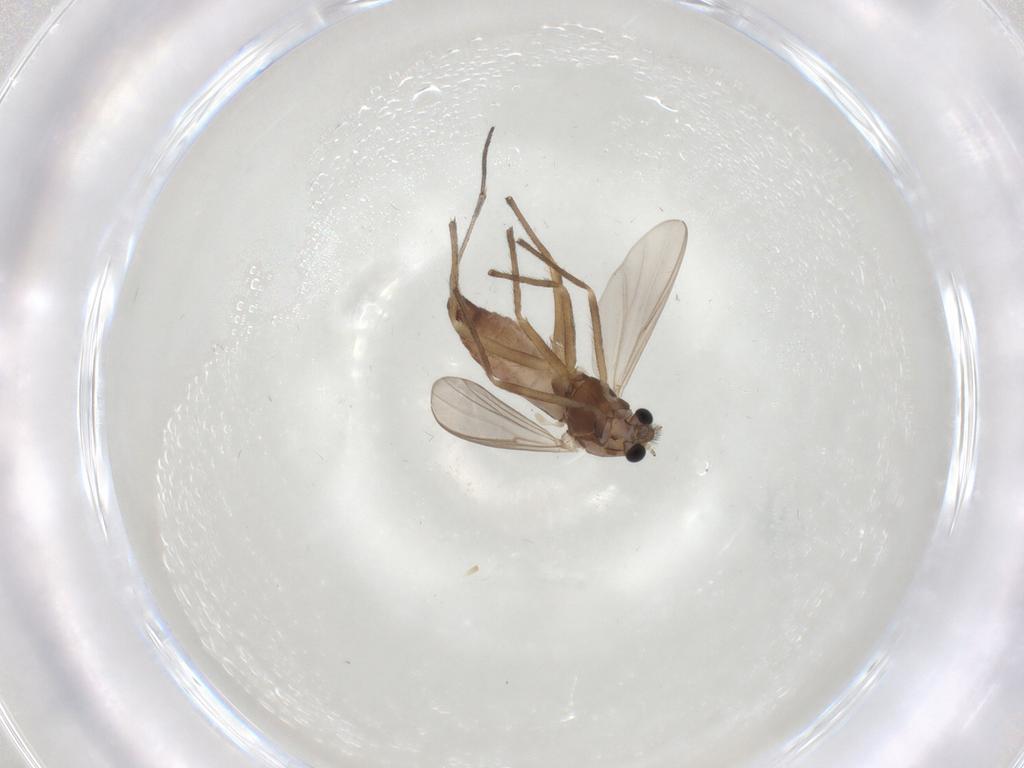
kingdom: Animalia
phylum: Arthropoda
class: Insecta
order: Diptera
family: Chironomidae
